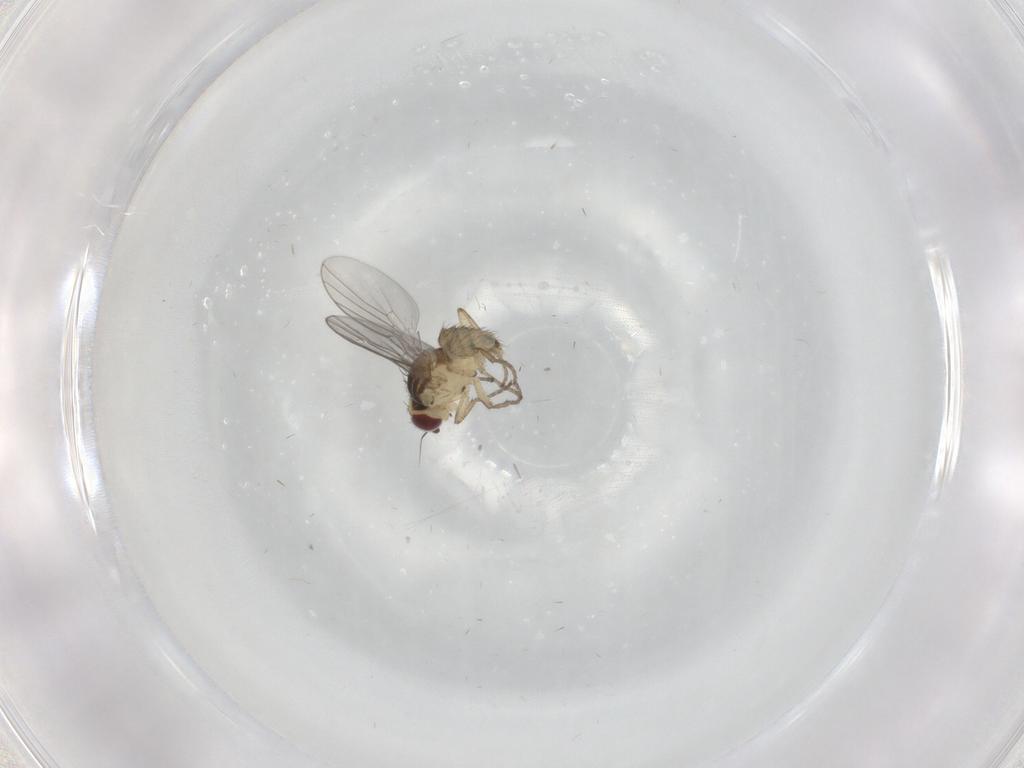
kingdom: Animalia
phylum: Arthropoda
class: Insecta
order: Diptera
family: Agromyzidae
